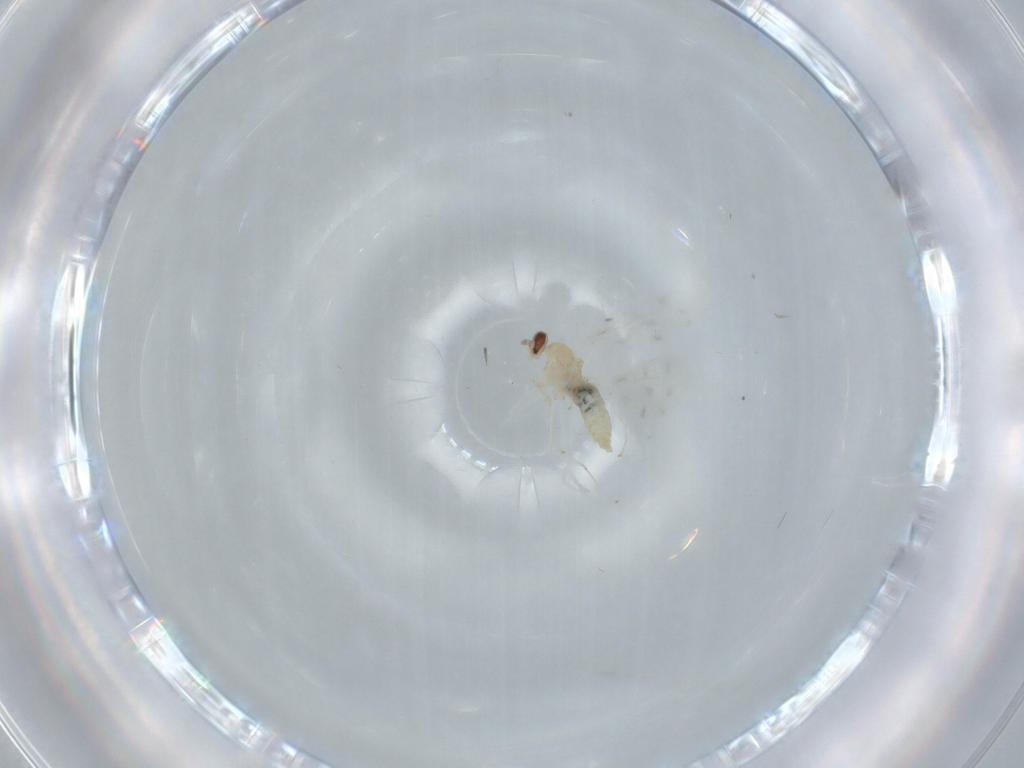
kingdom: Animalia
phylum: Arthropoda
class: Insecta
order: Diptera
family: Cecidomyiidae
